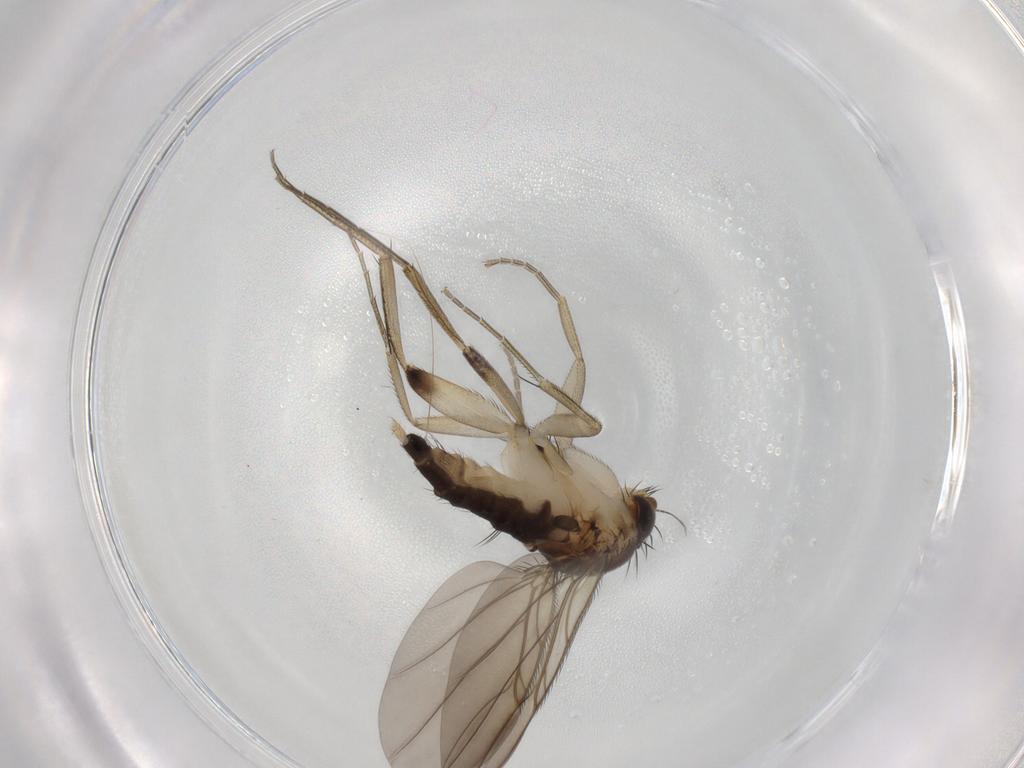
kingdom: Animalia
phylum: Arthropoda
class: Insecta
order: Diptera
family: Phoridae
